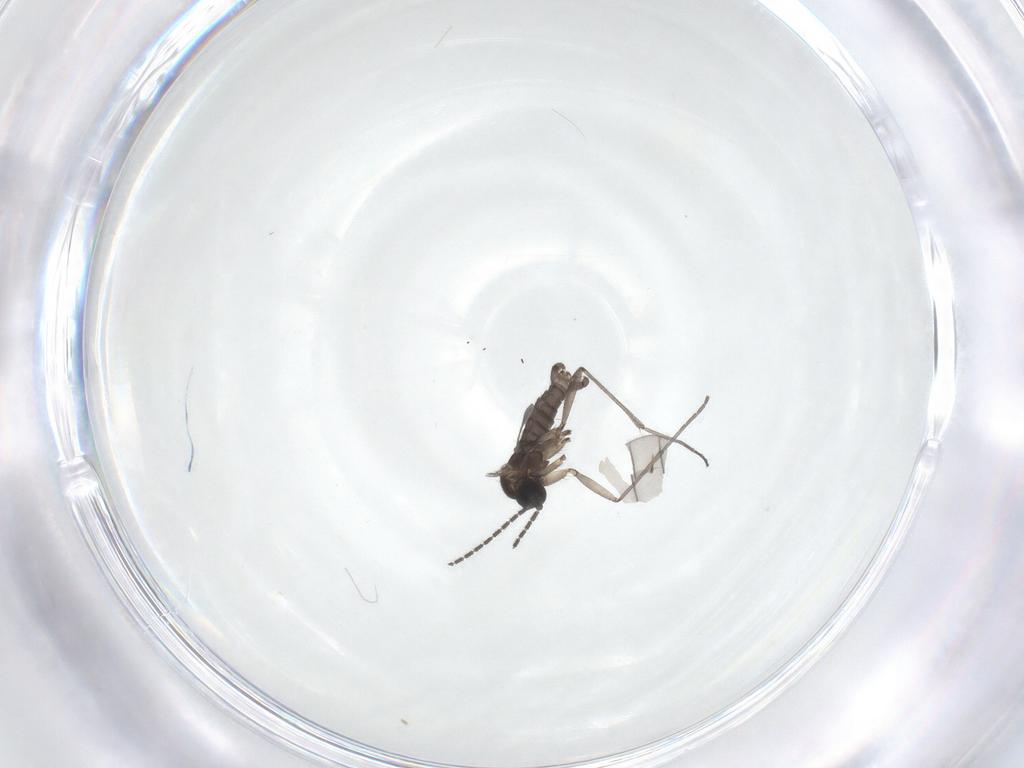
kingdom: Animalia
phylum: Arthropoda
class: Insecta
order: Diptera
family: Sciaridae
